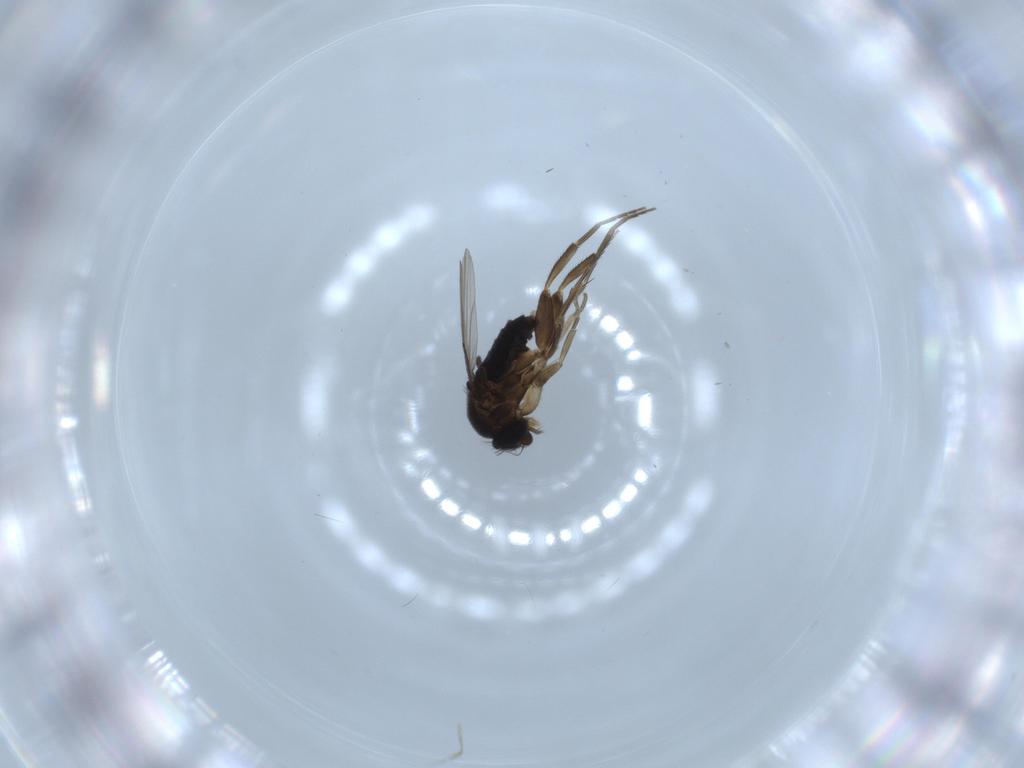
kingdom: Animalia
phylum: Arthropoda
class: Insecta
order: Diptera
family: Phoridae
